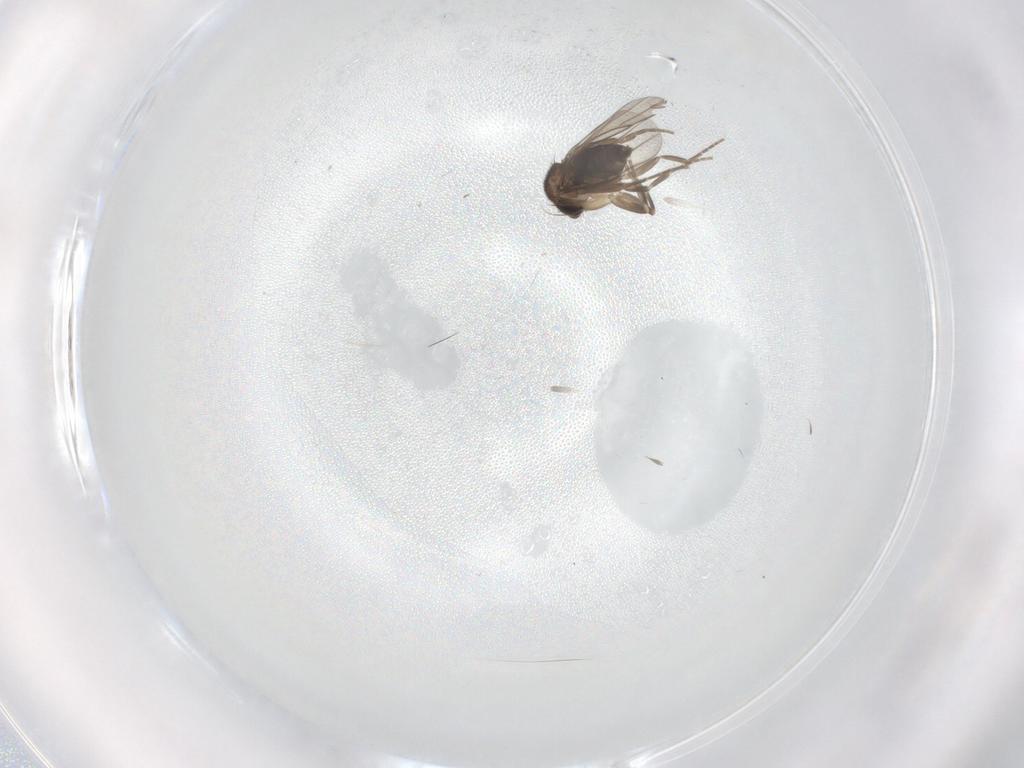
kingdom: Animalia
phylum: Arthropoda
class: Insecta
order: Diptera
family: Phoridae
